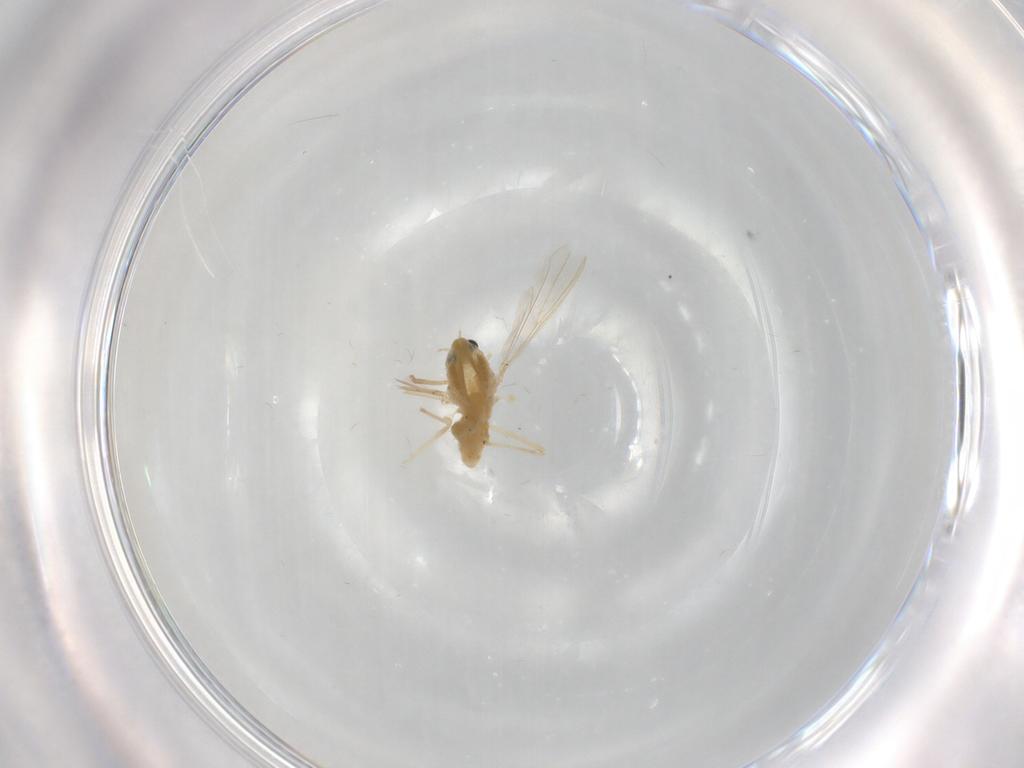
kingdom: Animalia
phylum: Arthropoda
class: Insecta
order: Diptera
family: Chironomidae
